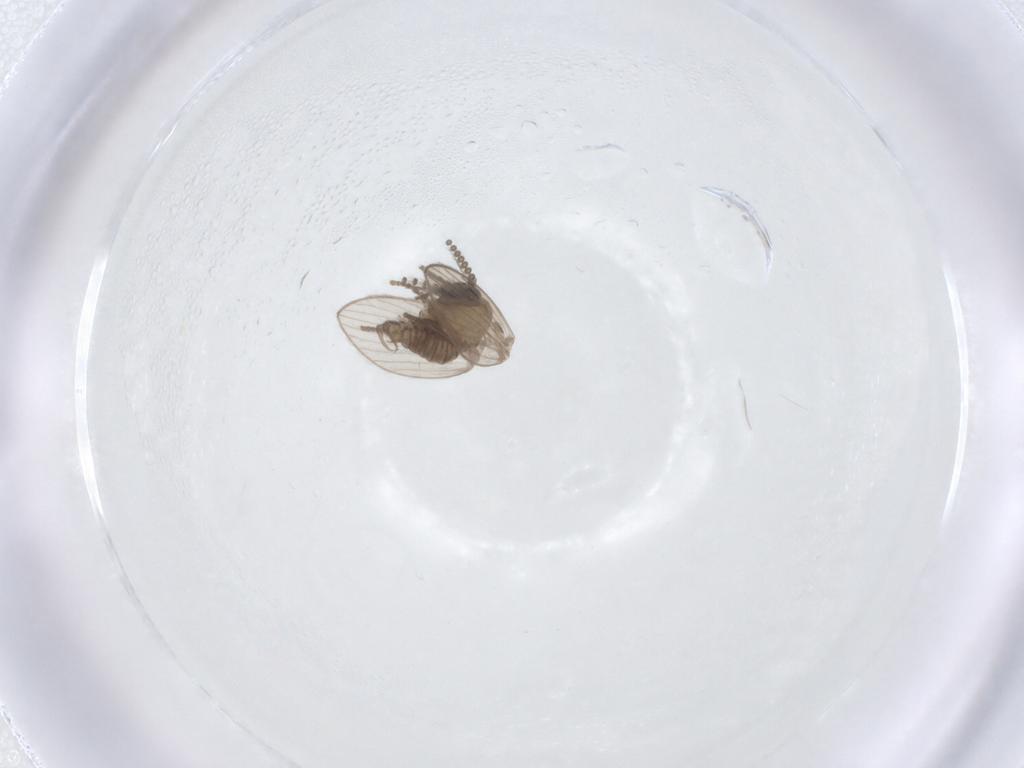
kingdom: Animalia
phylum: Arthropoda
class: Insecta
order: Diptera
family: Psychodidae
